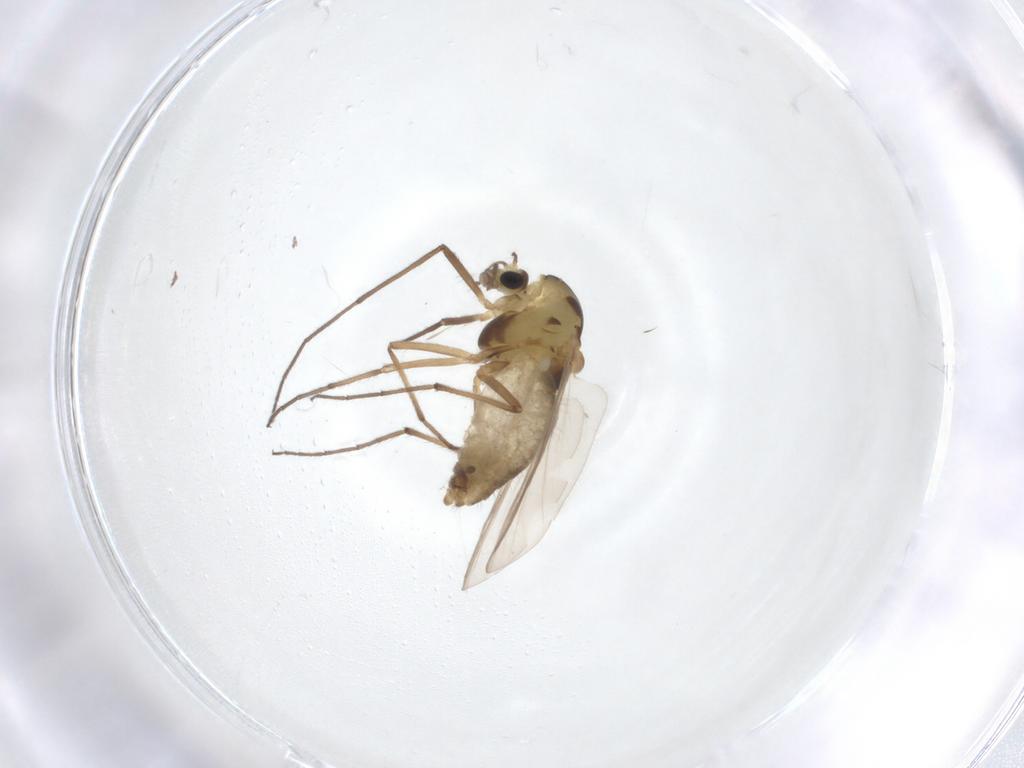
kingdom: Animalia
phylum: Arthropoda
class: Insecta
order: Diptera
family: Chironomidae
